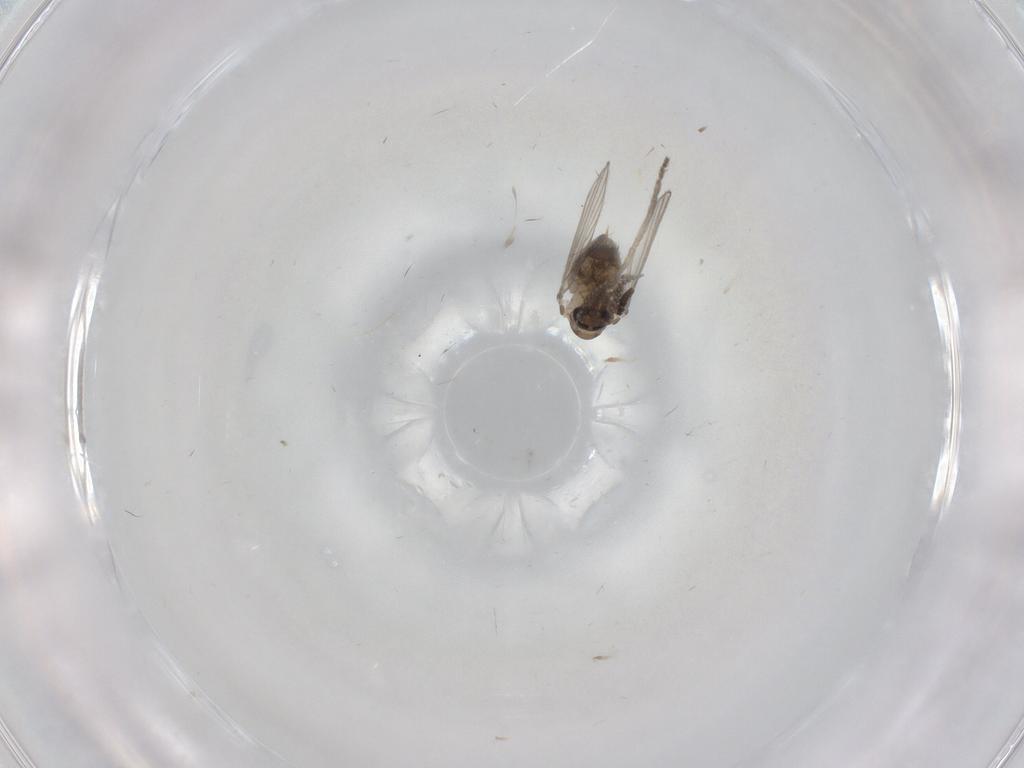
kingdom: Animalia
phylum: Arthropoda
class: Insecta
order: Diptera
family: Psychodidae
